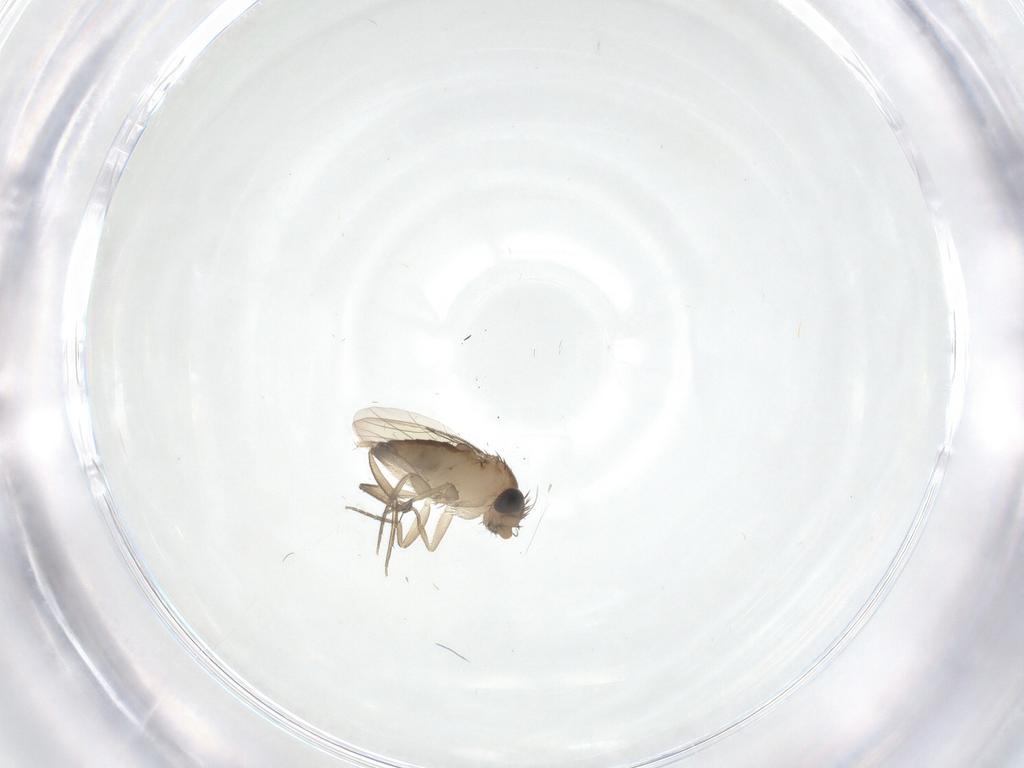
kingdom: Animalia
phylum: Arthropoda
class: Insecta
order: Diptera
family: Phoridae
